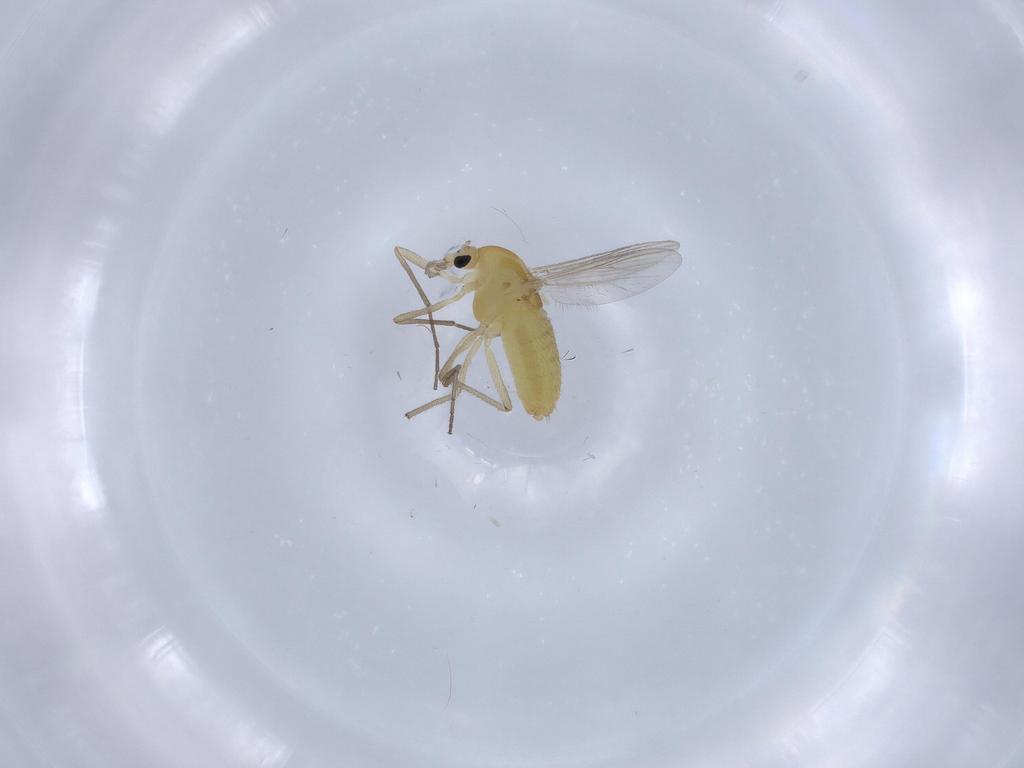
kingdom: Animalia
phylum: Arthropoda
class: Insecta
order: Diptera
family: Chironomidae
